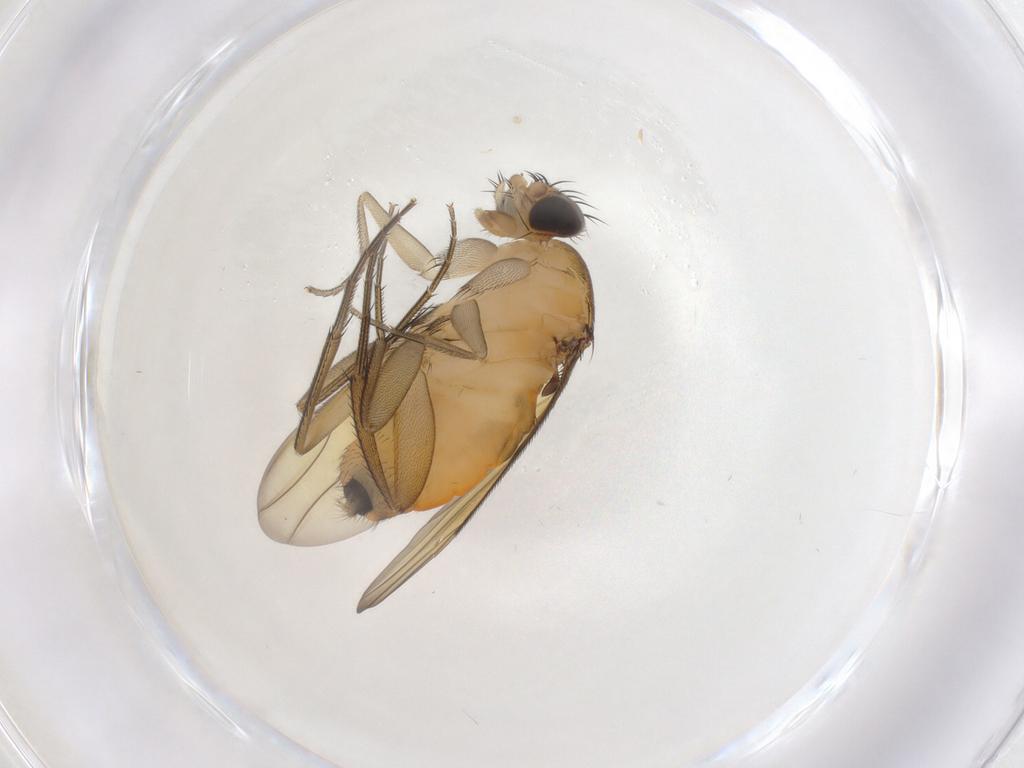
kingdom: Animalia
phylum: Arthropoda
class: Insecta
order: Diptera
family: Phoridae
